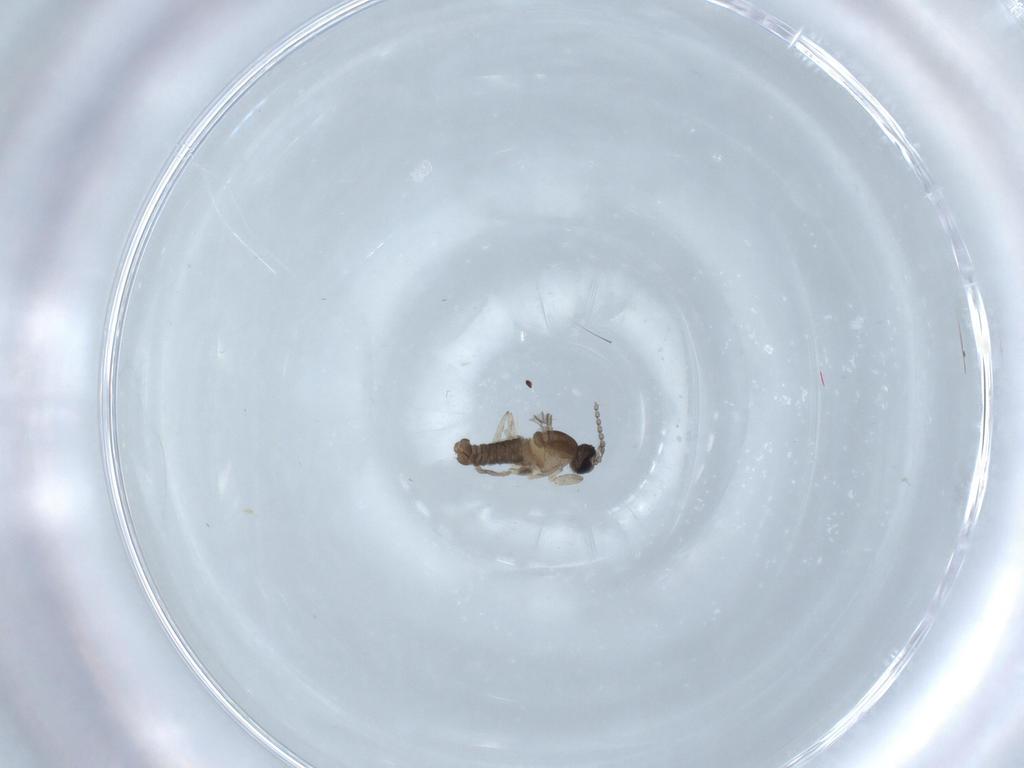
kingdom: Animalia
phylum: Arthropoda
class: Insecta
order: Diptera
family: Cecidomyiidae
